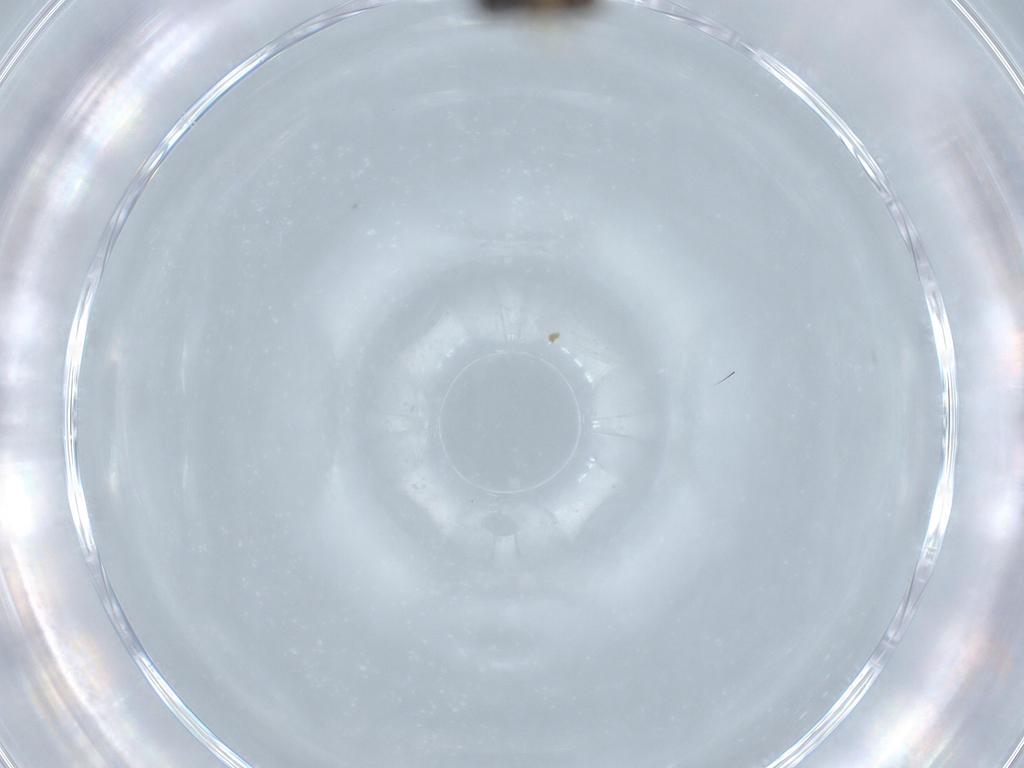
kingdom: Animalia
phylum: Arthropoda
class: Insecta
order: Hymenoptera
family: Aphelinidae
